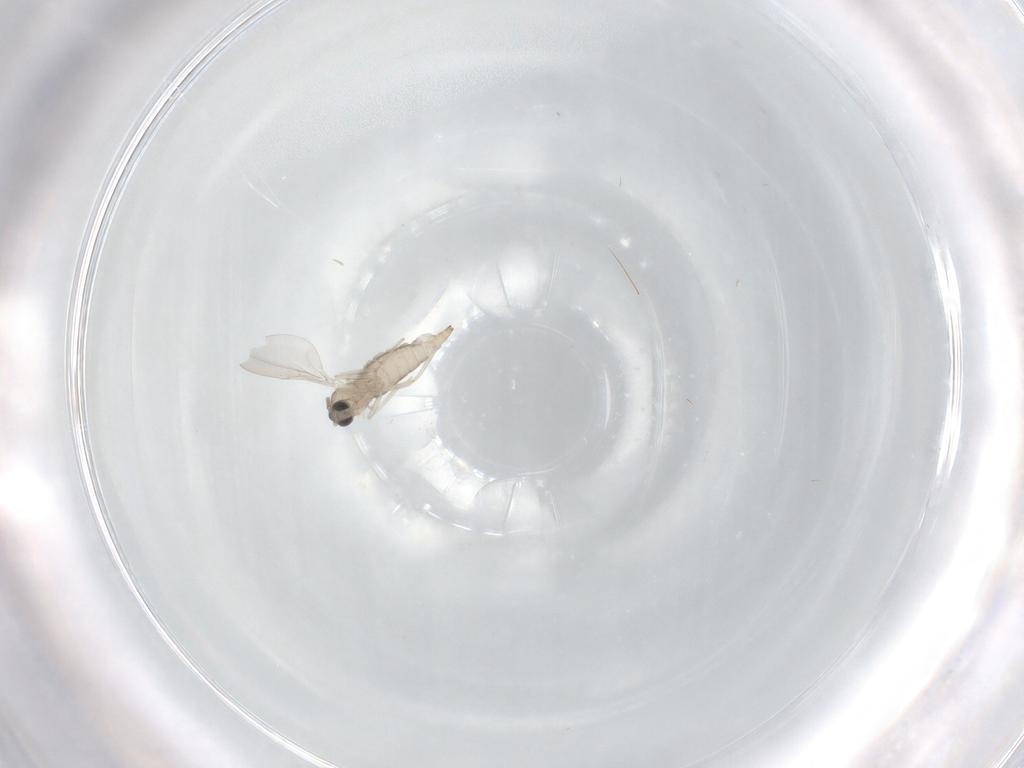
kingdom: Animalia
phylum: Arthropoda
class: Insecta
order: Diptera
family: Cecidomyiidae
